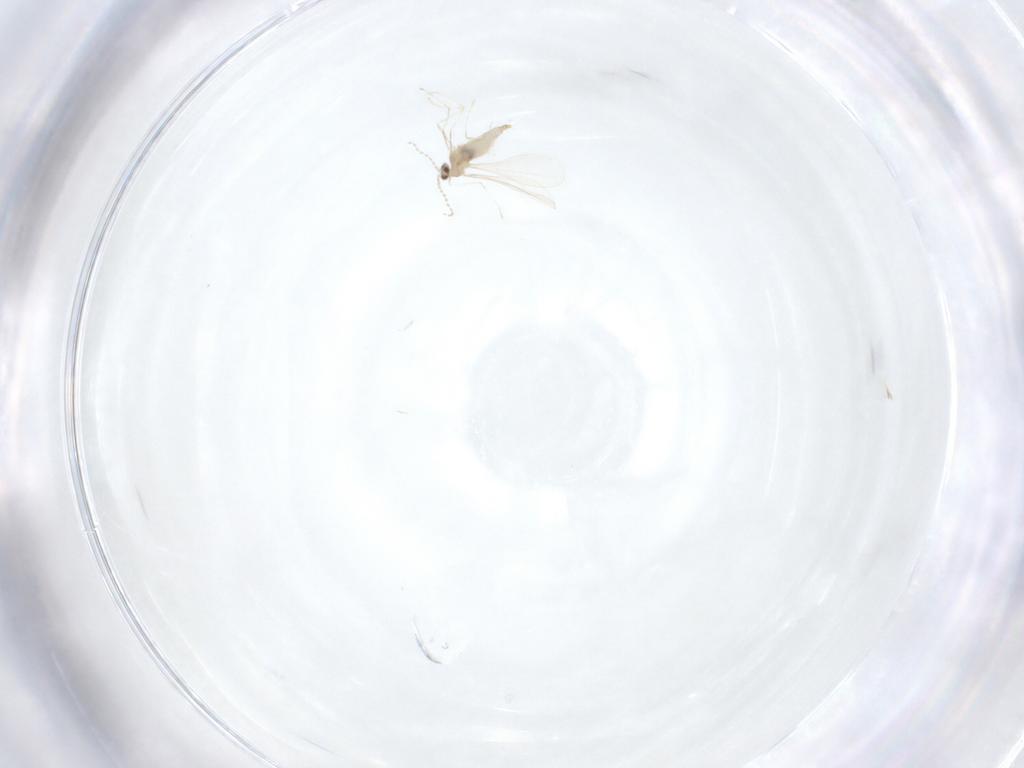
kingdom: Animalia
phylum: Arthropoda
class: Insecta
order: Diptera
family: Cecidomyiidae
